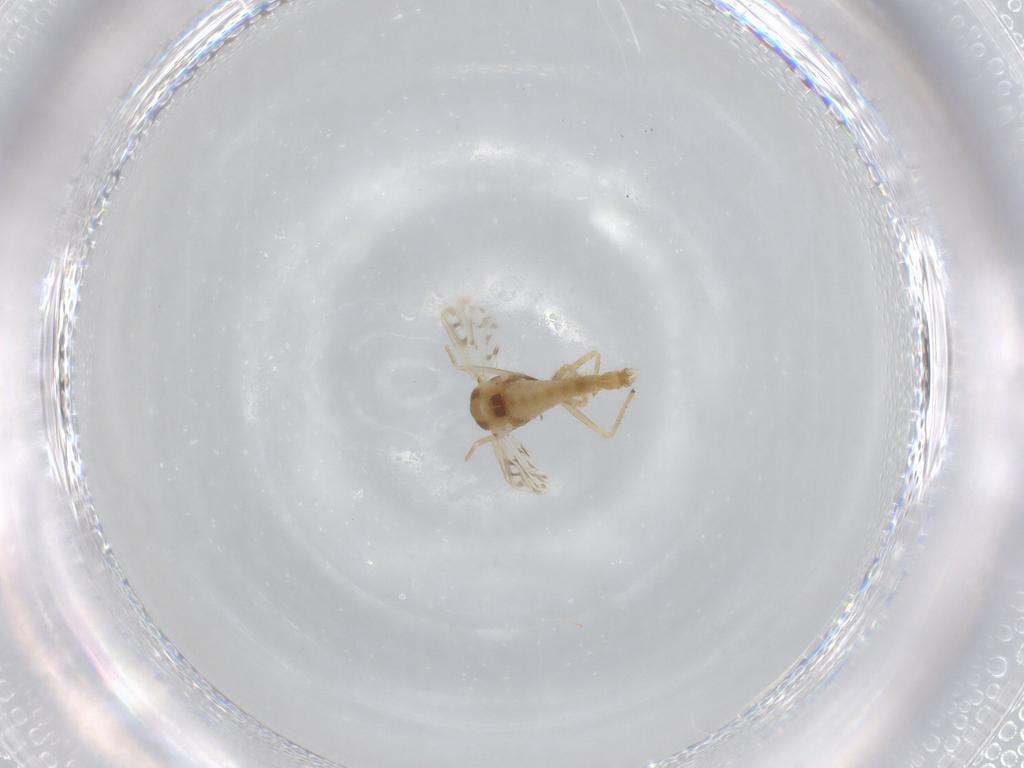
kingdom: Animalia
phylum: Arthropoda
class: Insecta
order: Diptera
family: Chironomidae
